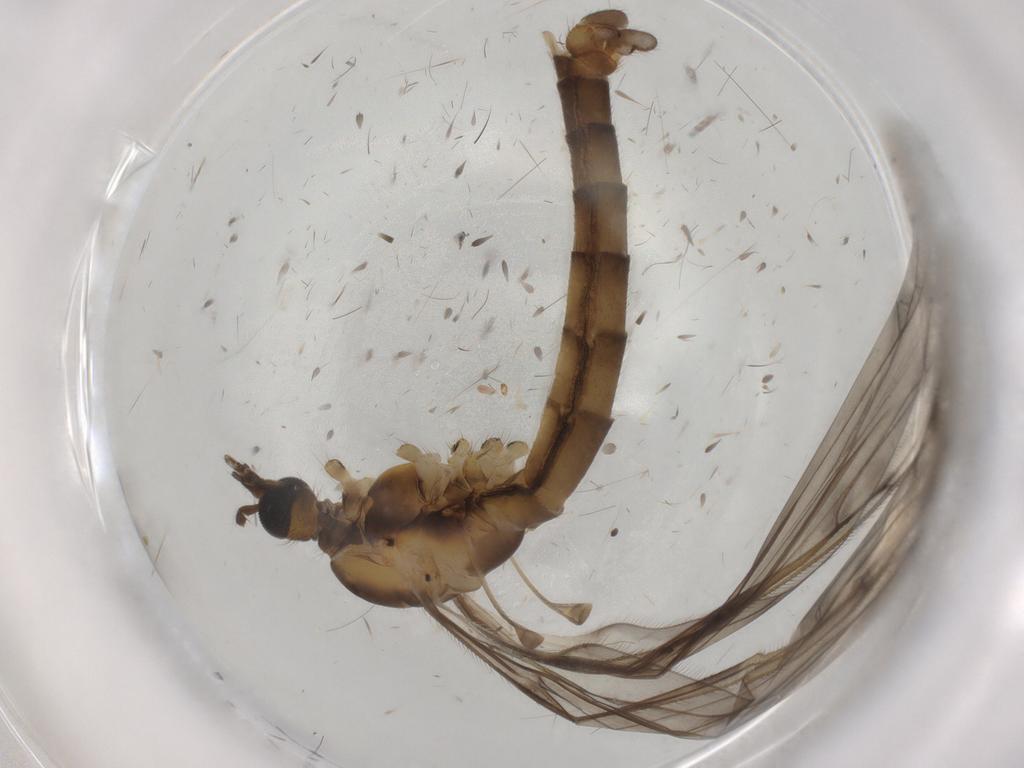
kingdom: Animalia
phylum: Arthropoda
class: Insecta
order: Diptera
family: Limoniidae
